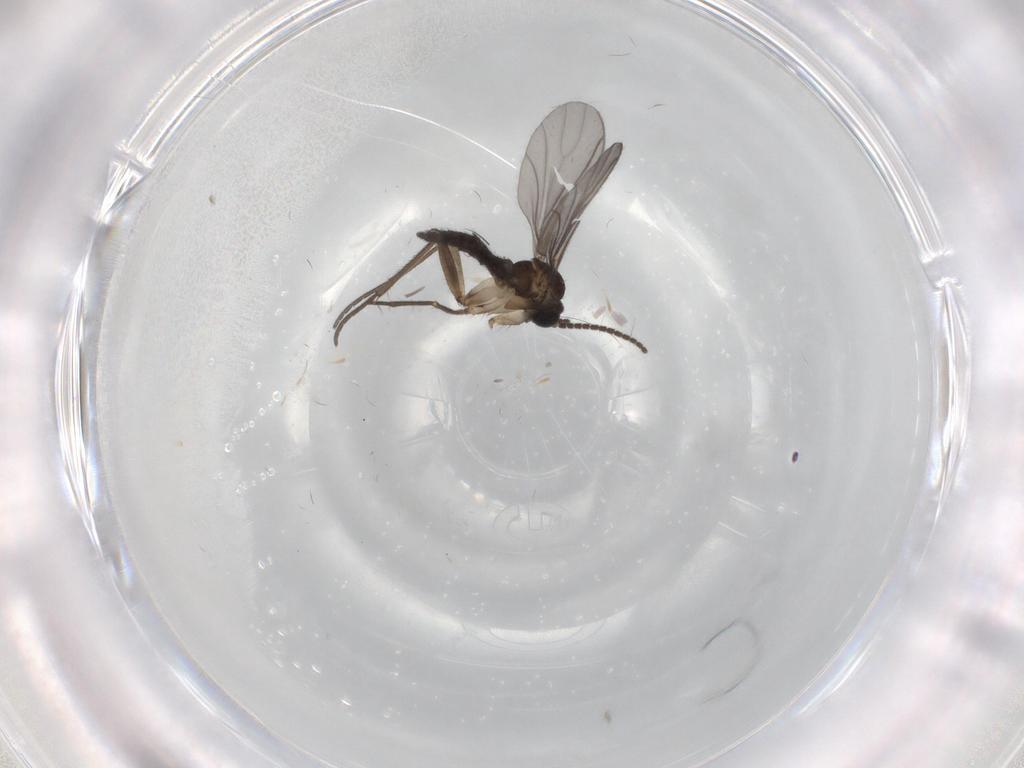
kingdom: Animalia
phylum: Arthropoda
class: Insecta
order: Diptera
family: Sciaridae
